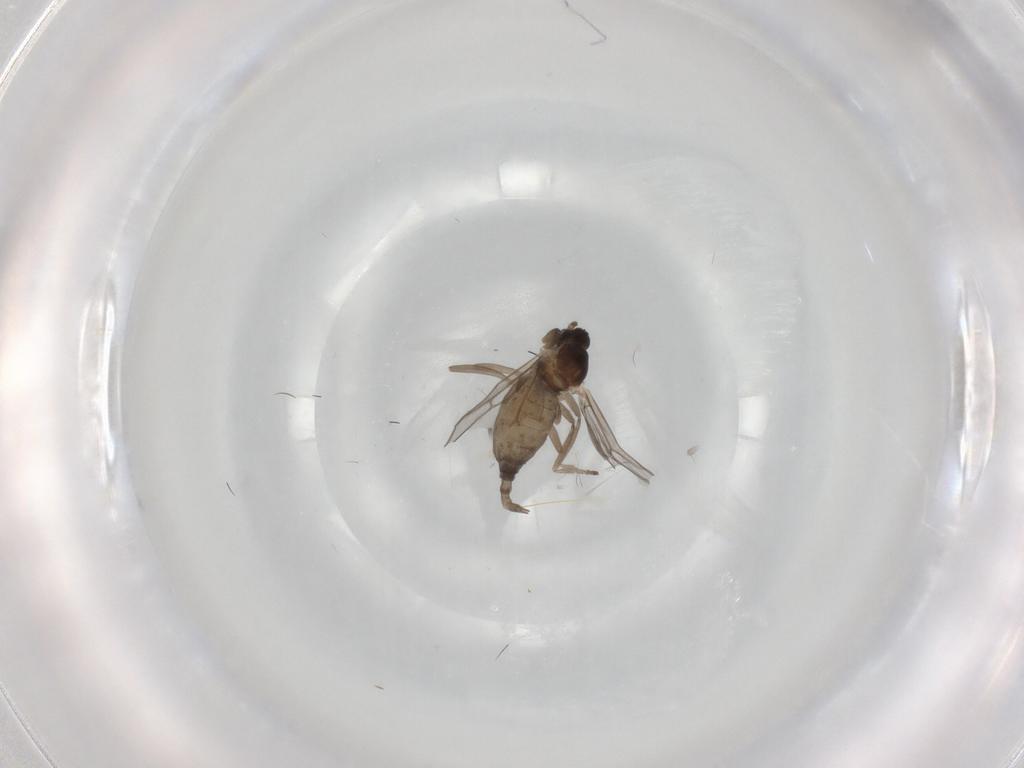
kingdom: Animalia
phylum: Arthropoda
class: Insecta
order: Diptera
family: Cecidomyiidae
